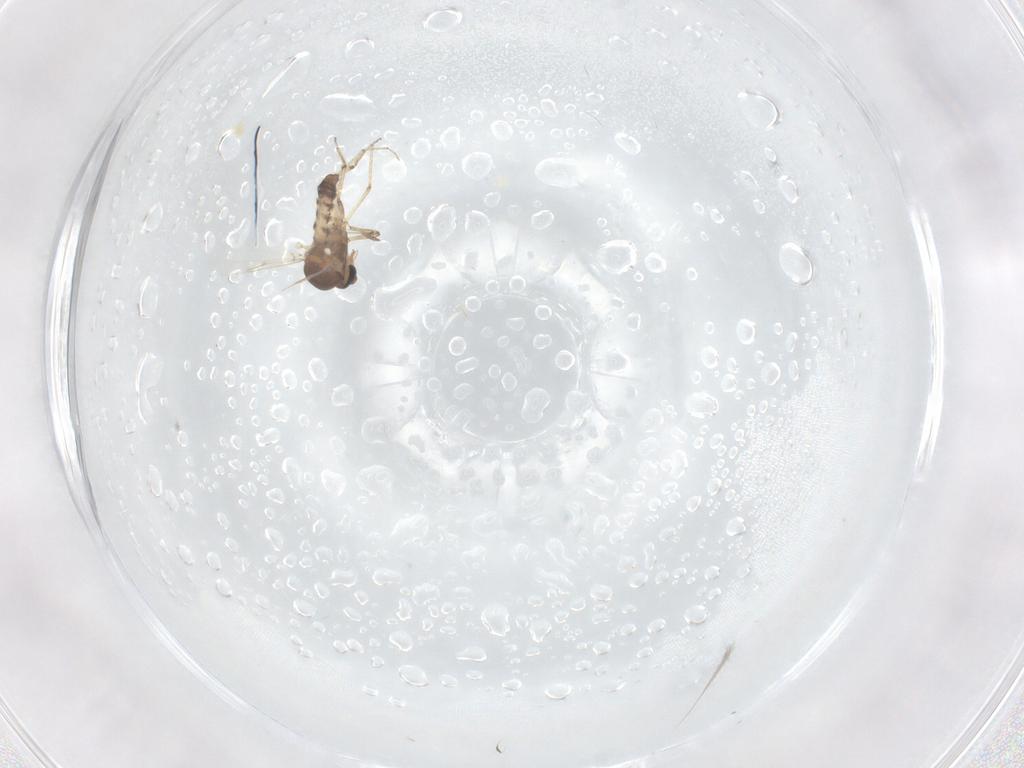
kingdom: Animalia
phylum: Arthropoda
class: Insecta
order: Diptera
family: Ceratopogonidae
